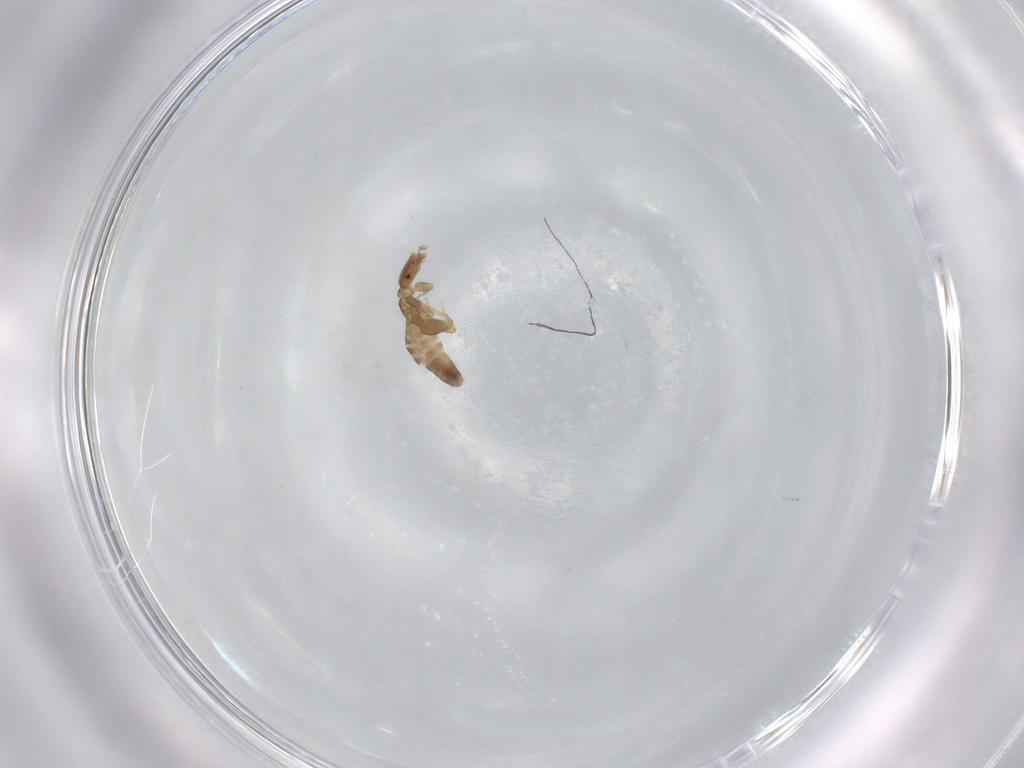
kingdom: Animalia
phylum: Arthropoda
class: Insecta
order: Psocodea
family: Liposcelididae
